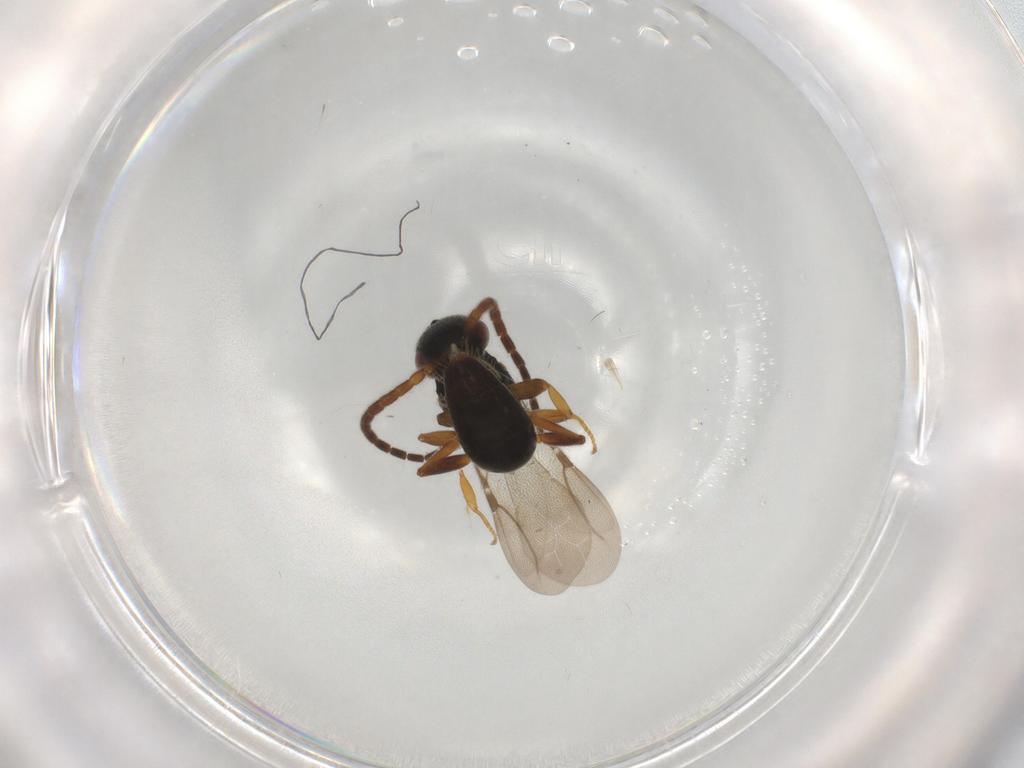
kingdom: Animalia
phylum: Arthropoda
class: Insecta
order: Hymenoptera
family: Bethylidae
